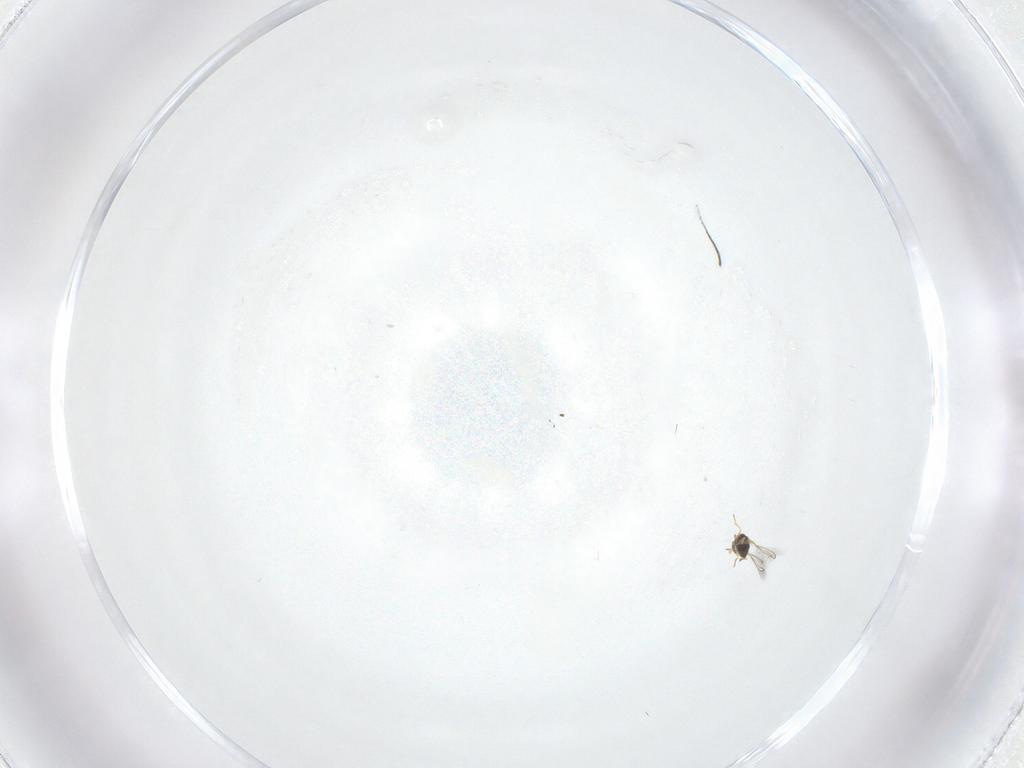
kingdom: Animalia
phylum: Arthropoda
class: Insecta
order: Hymenoptera
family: Mymaridae
